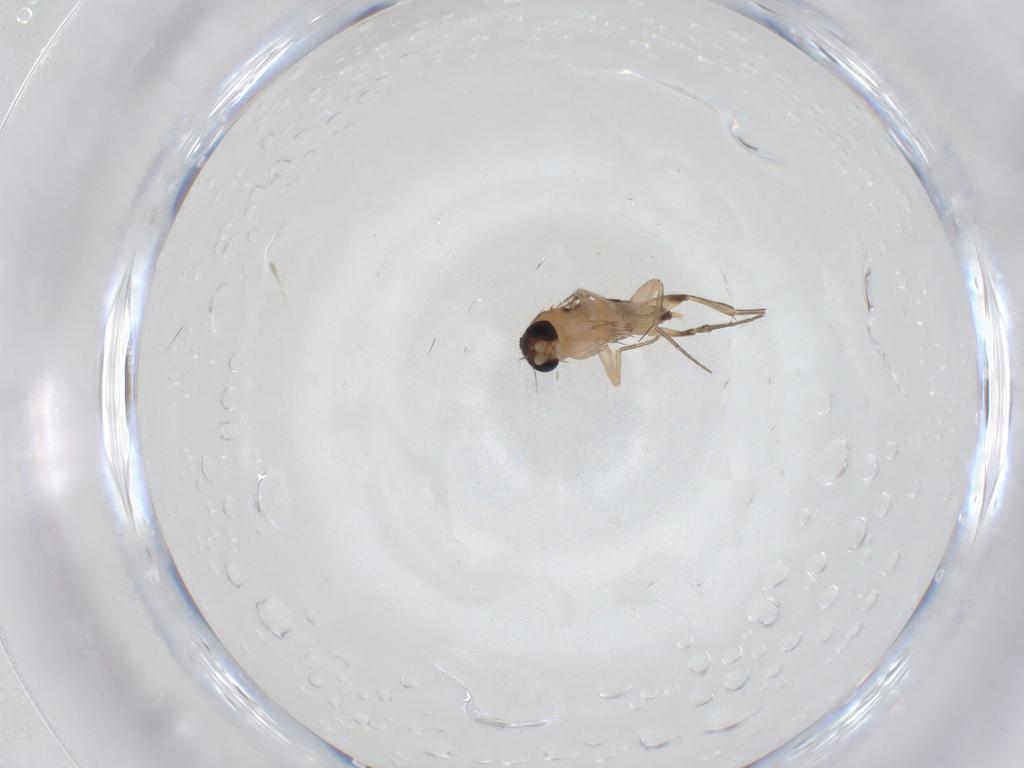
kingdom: Animalia
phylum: Arthropoda
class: Insecta
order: Diptera
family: Phoridae
